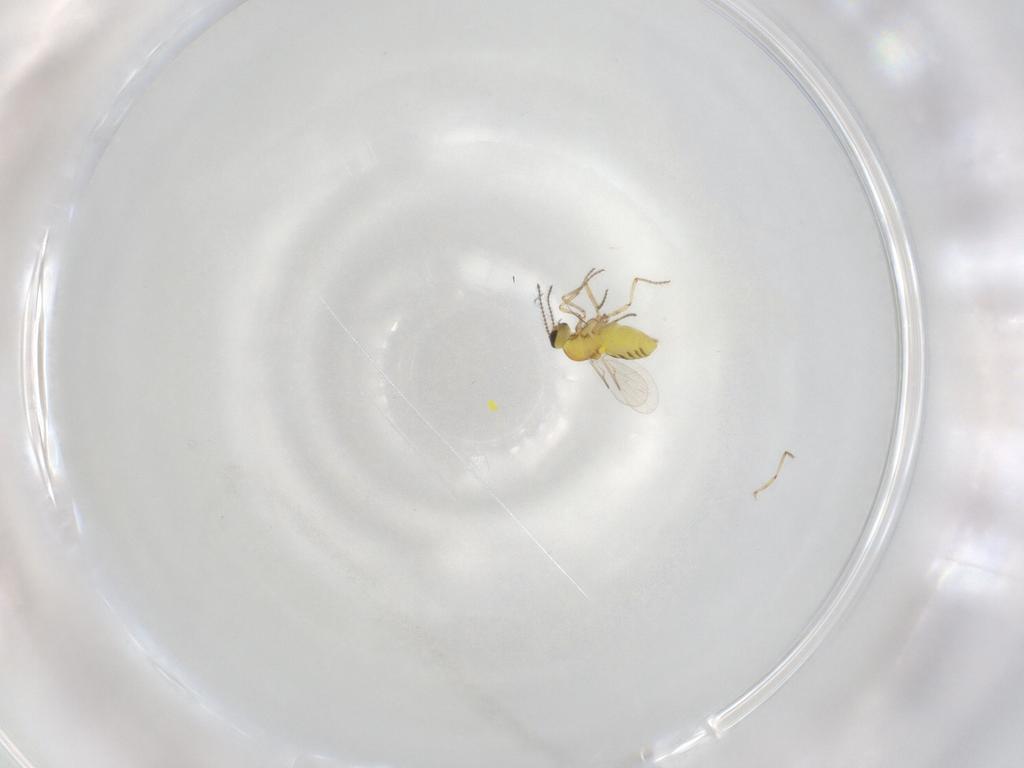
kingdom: Animalia
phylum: Arthropoda
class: Insecta
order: Diptera
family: Ceratopogonidae
